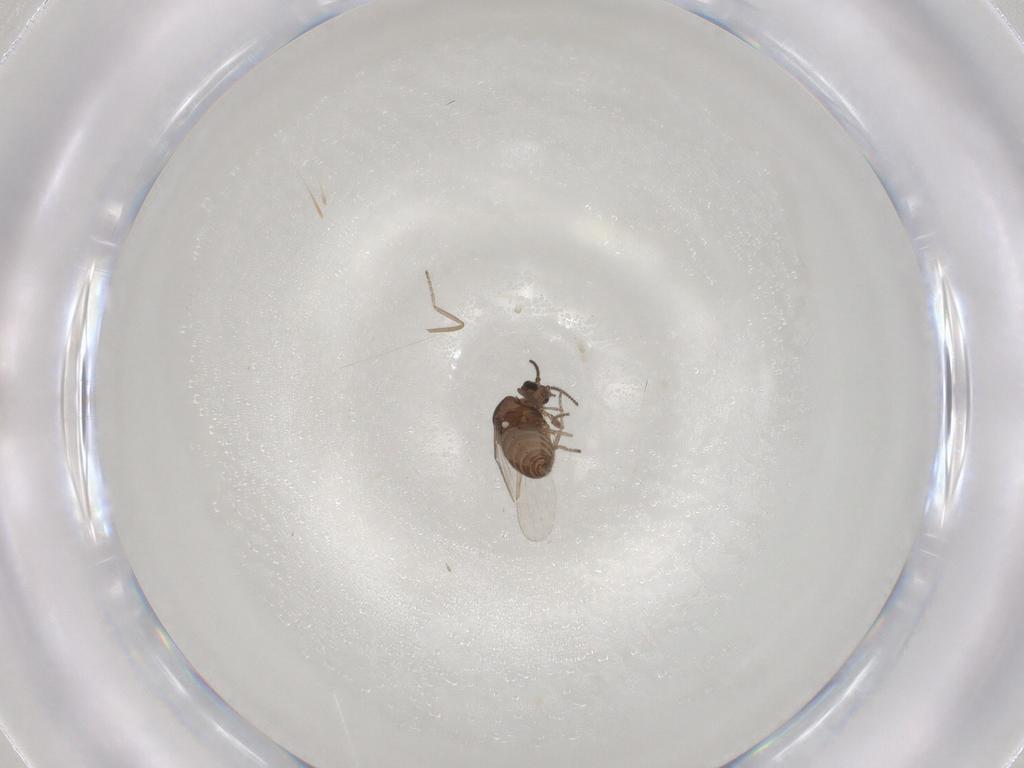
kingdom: Animalia
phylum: Arthropoda
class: Insecta
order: Diptera
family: Ceratopogonidae
